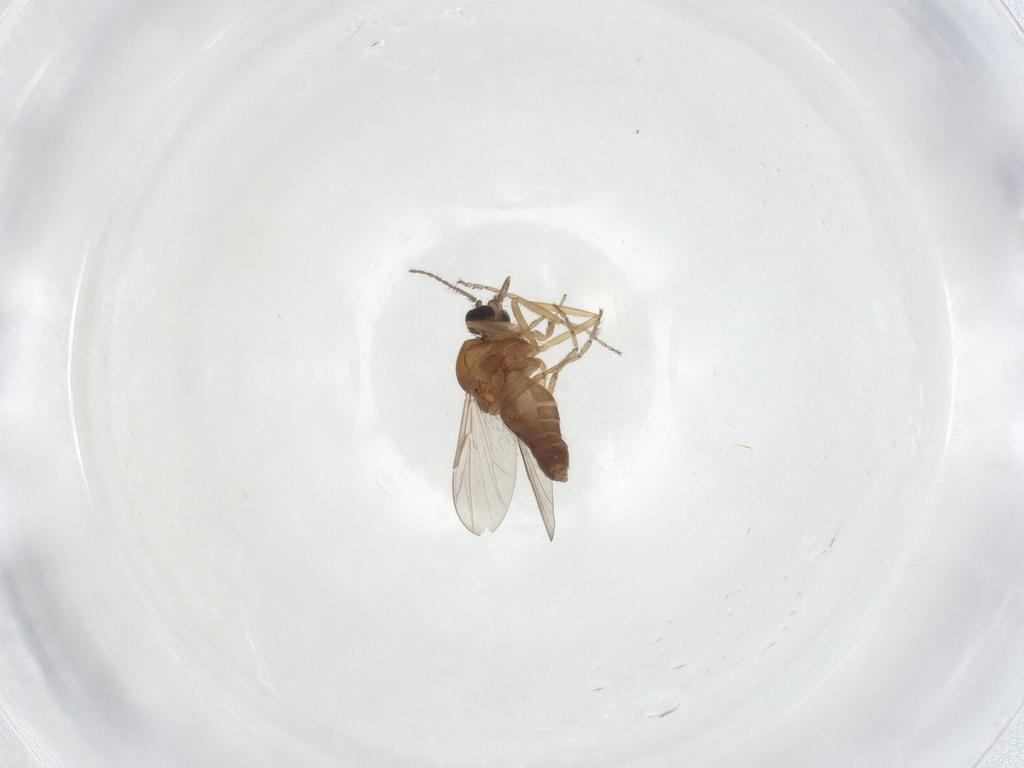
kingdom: Animalia
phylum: Arthropoda
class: Insecta
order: Diptera
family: Ceratopogonidae
